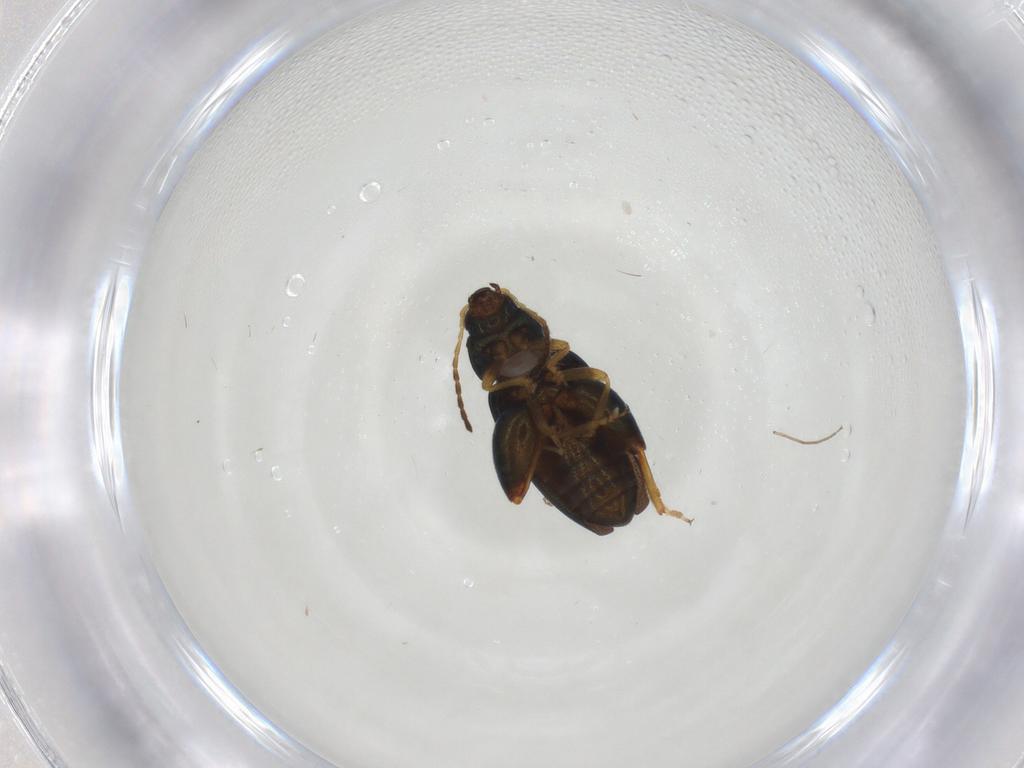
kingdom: Animalia
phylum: Arthropoda
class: Insecta
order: Coleoptera
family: Chrysomelidae
